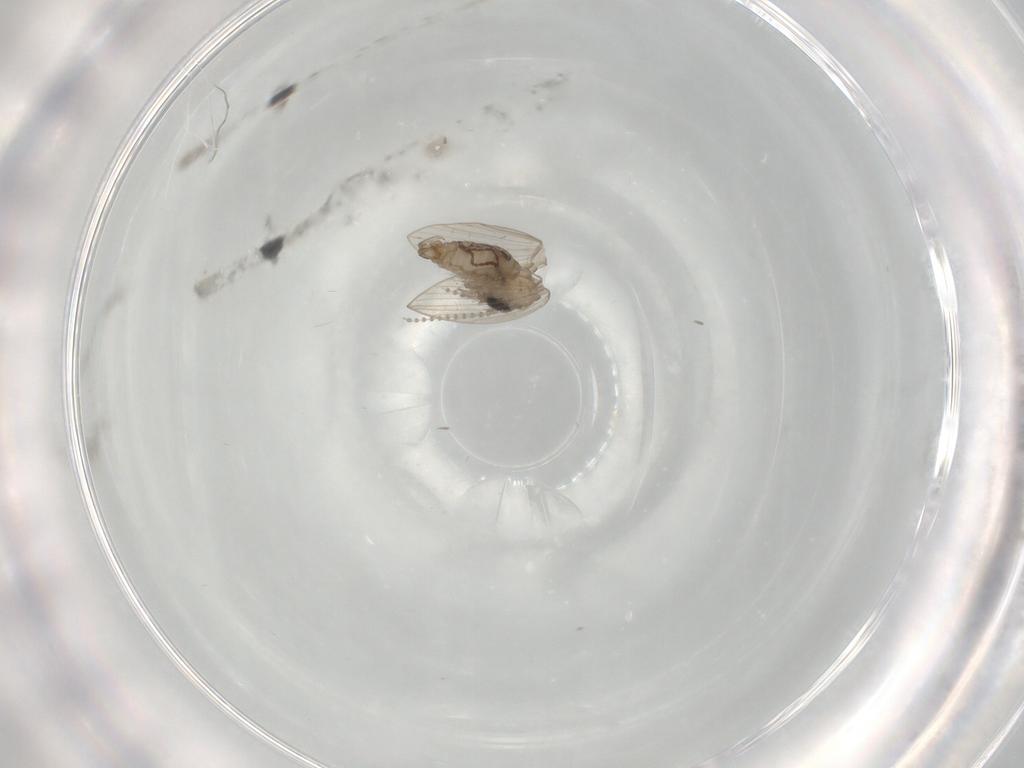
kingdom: Animalia
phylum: Arthropoda
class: Insecta
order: Diptera
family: Psychodidae
